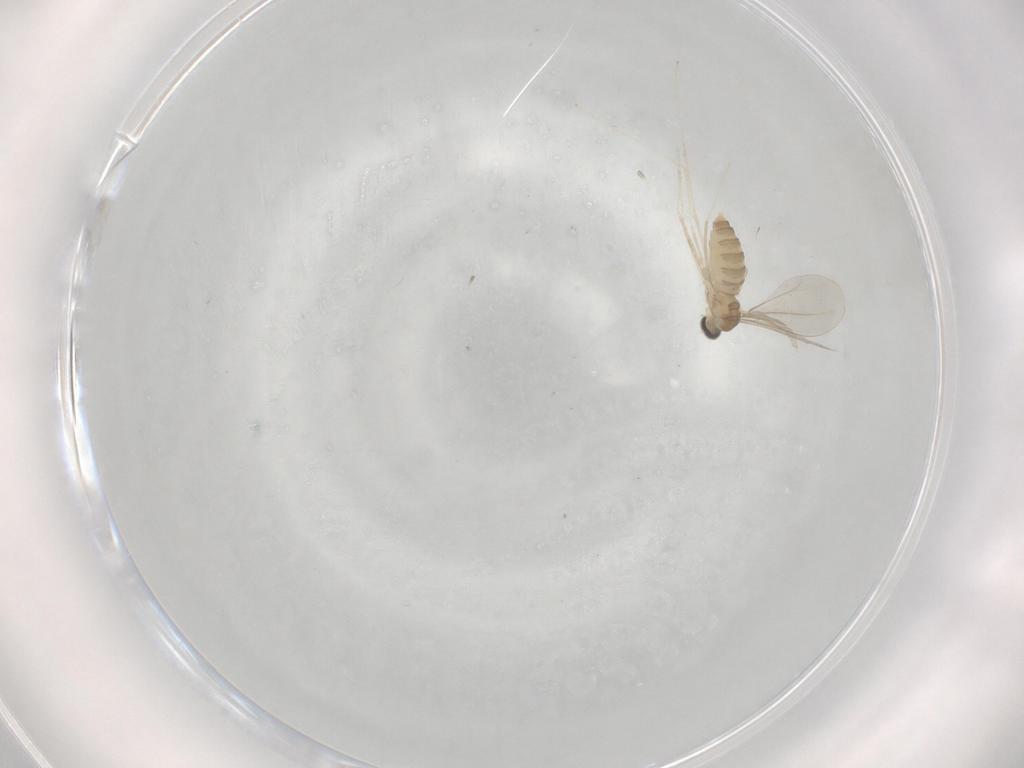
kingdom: Animalia
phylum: Arthropoda
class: Insecta
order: Diptera
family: Cecidomyiidae
